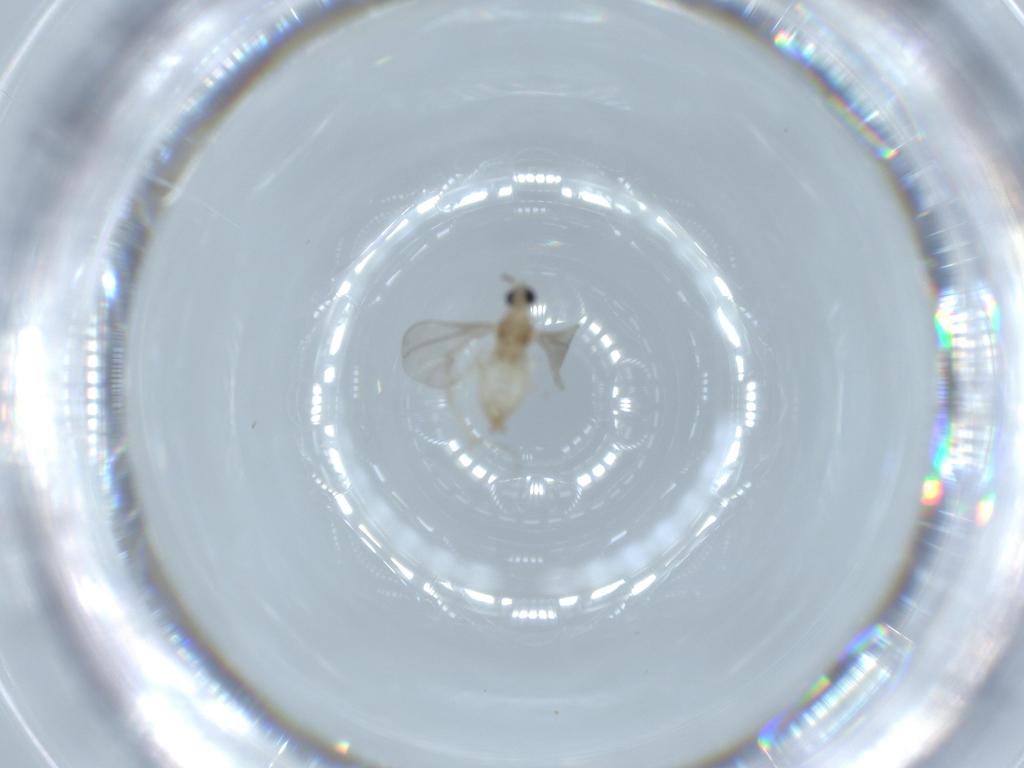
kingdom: Animalia
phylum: Arthropoda
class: Insecta
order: Diptera
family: Cecidomyiidae
